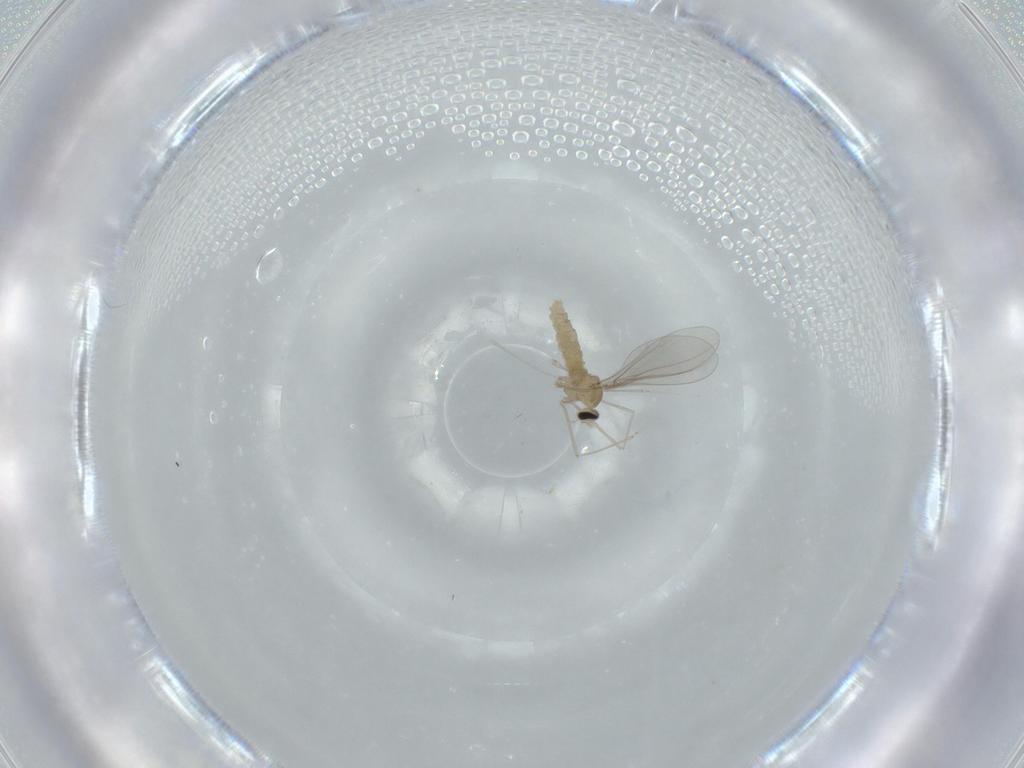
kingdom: Animalia
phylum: Arthropoda
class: Insecta
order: Diptera
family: Cecidomyiidae
